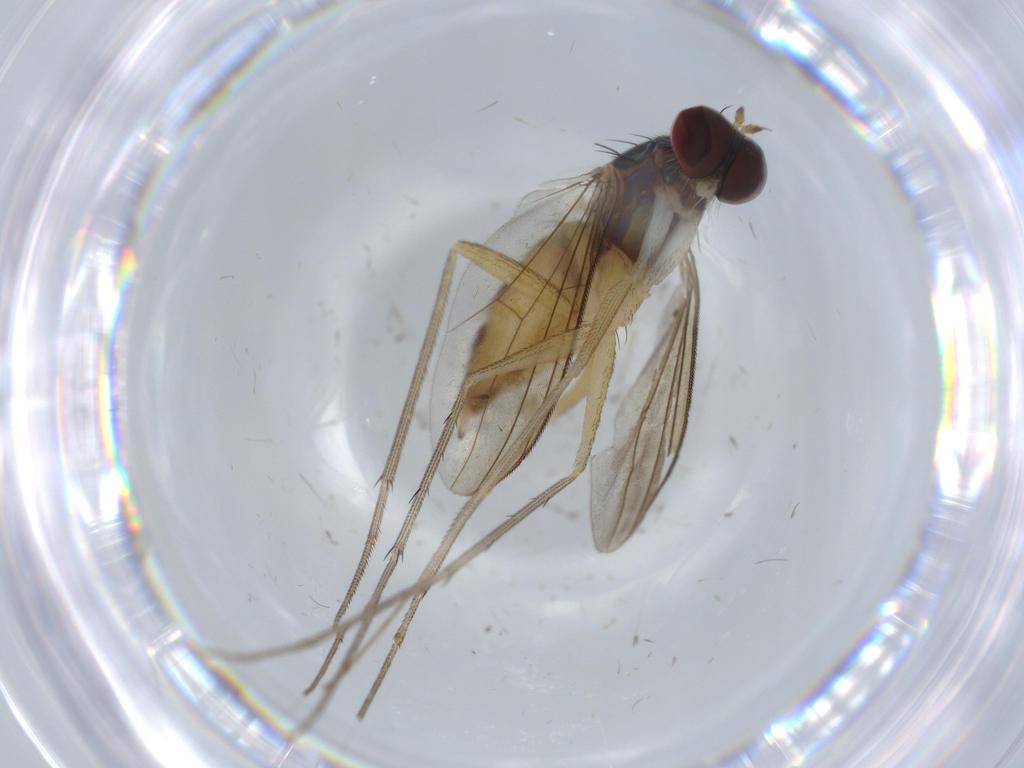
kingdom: Animalia
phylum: Arthropoda
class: Insecta
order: Diptera
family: Dolichopodidae
